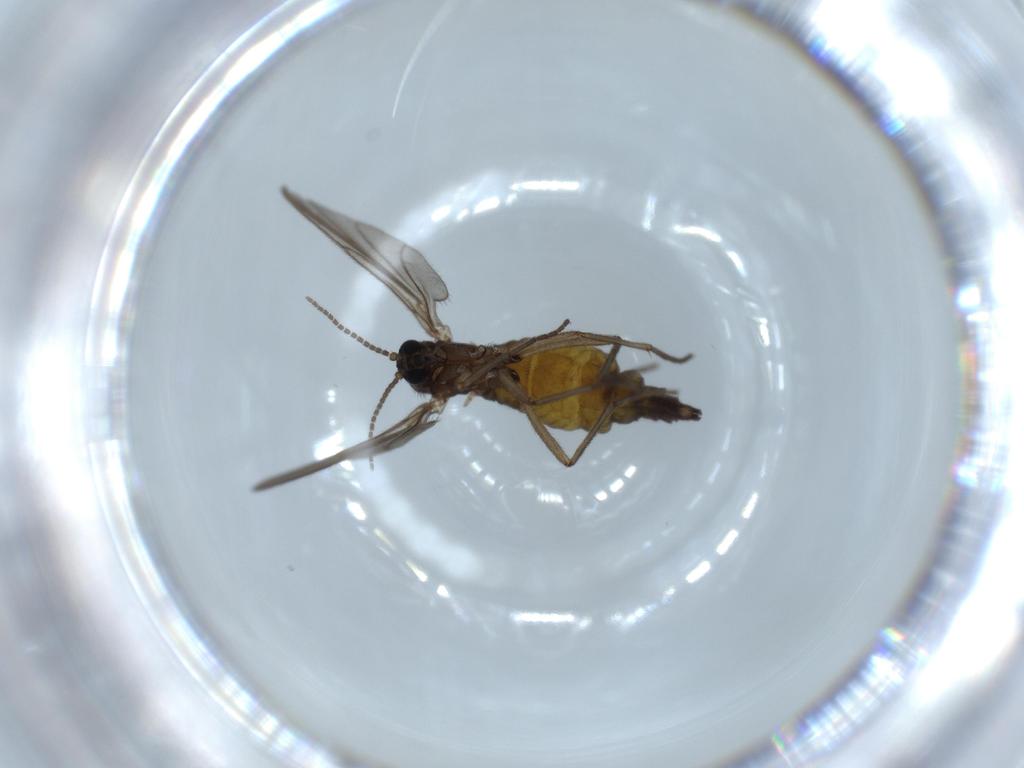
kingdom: Animalia
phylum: Arthropoda
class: Insecta
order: Diptera
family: Sciaridae
